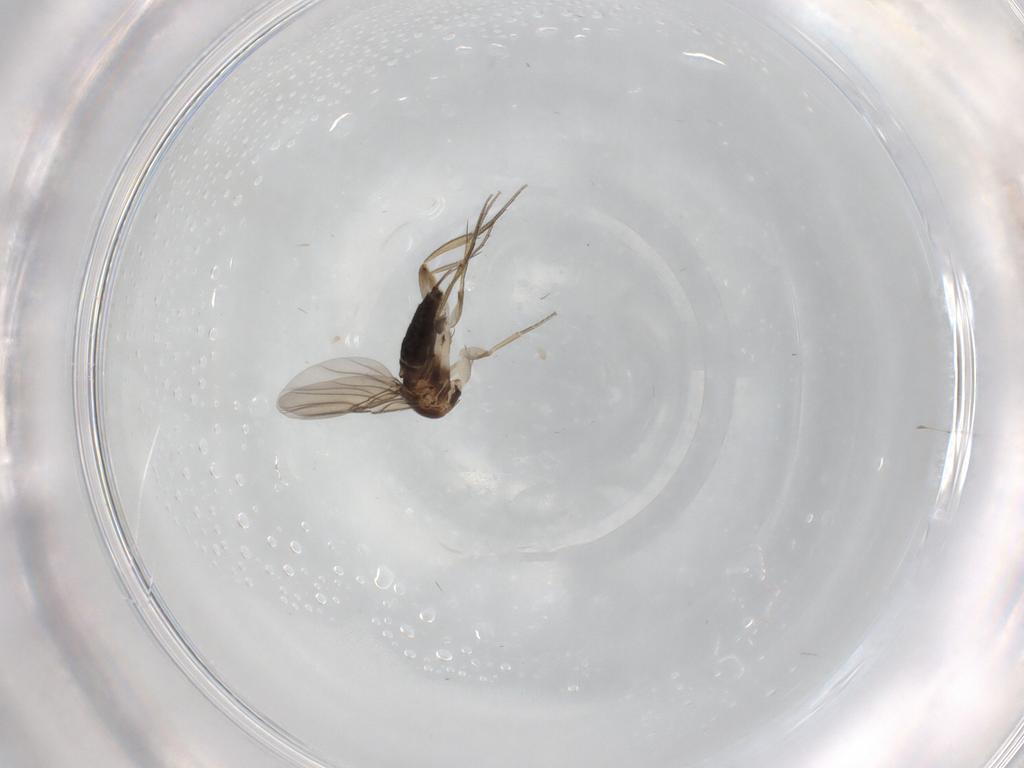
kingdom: Animalia
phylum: Arthropoda
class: Insecta
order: Diptera
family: Phoridae
